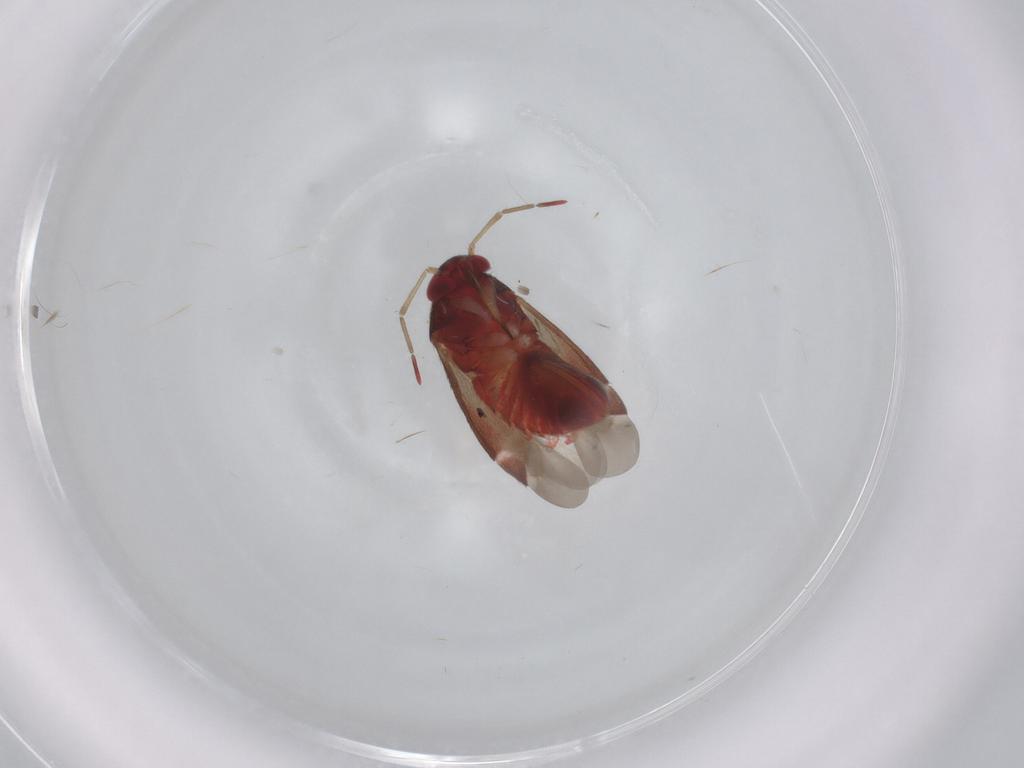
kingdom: Animalia
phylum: Arthropoda
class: Insecta
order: Hemiptera
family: Miridae
